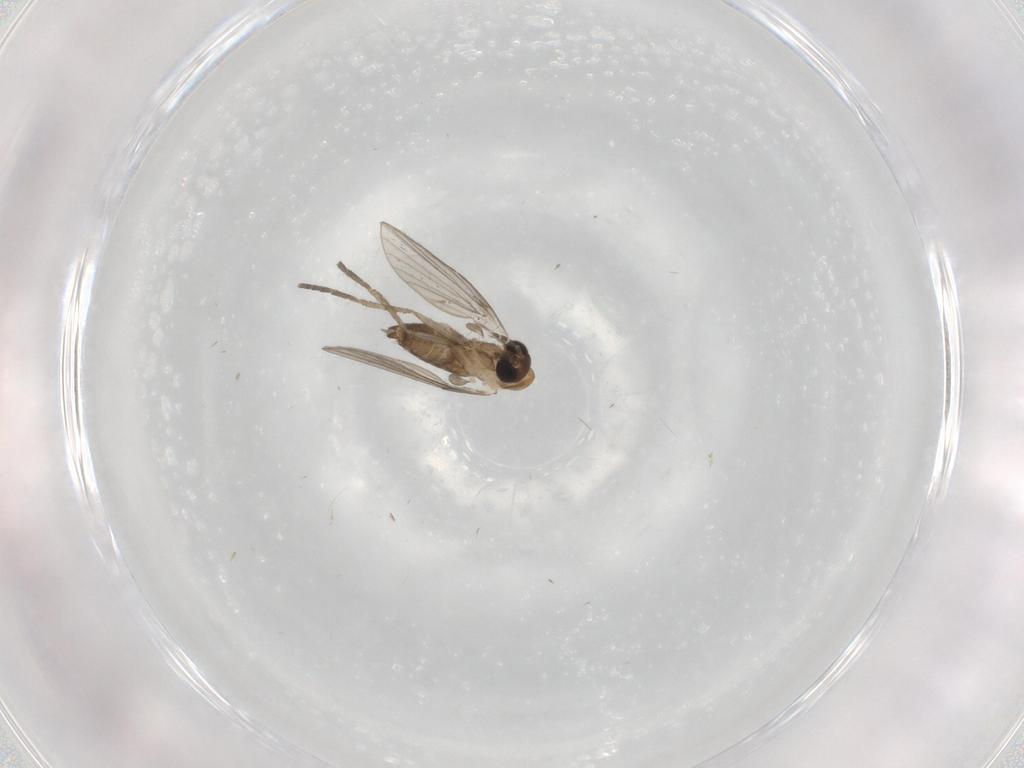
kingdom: Animalia
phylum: Arthropoda
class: Insecta
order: Diptera
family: Psychodidae
